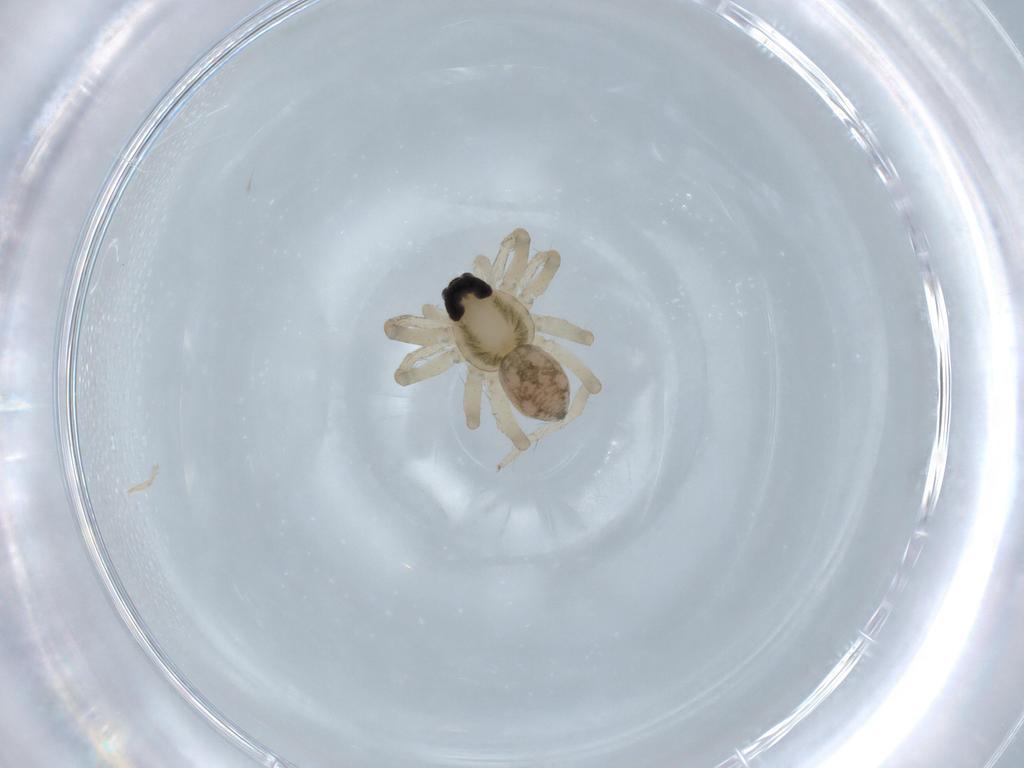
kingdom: Animalia
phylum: Arthropoda
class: Arachnida
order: Araneae
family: Lycosidae
